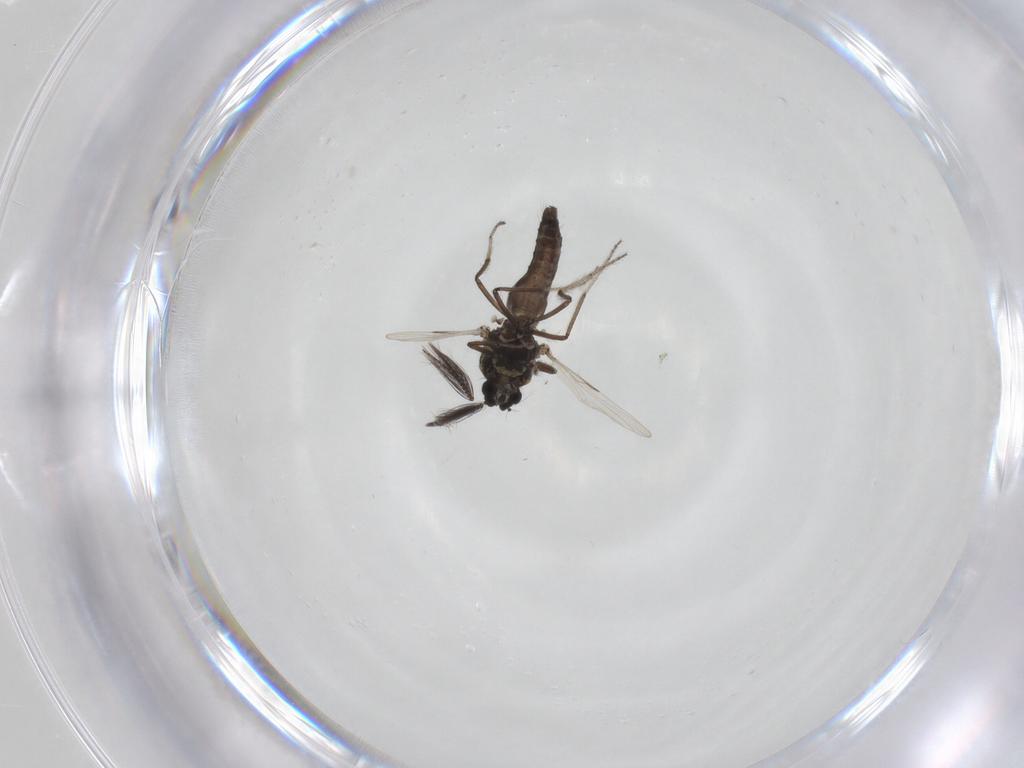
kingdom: Animalia
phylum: Arthropoda
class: Insecta
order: Diptera
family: Ceratopogonidae
